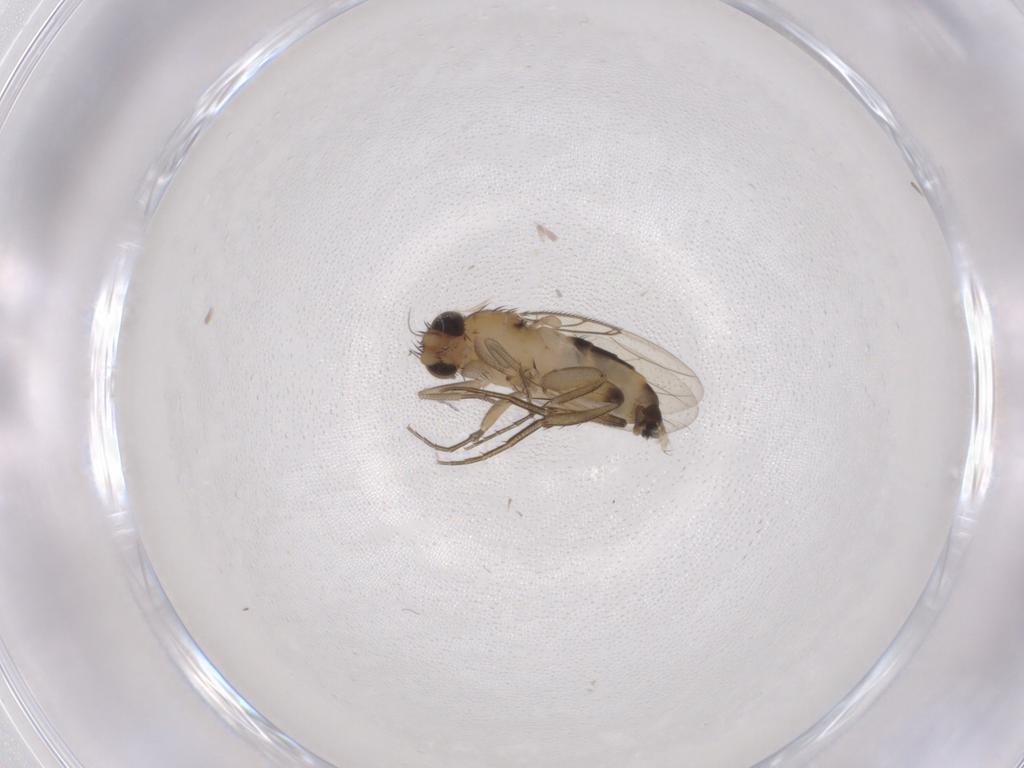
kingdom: Animalia
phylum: Arthropoda
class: Insecta
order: Diptera
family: Phoridae
